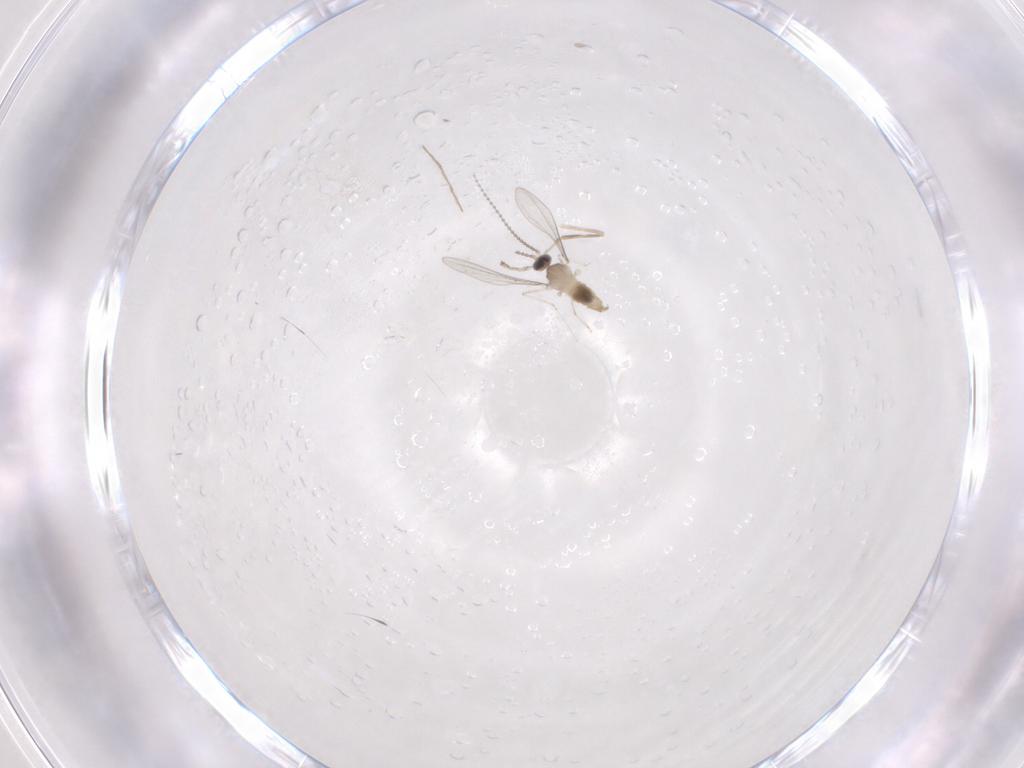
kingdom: Animalia
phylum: Arthropoda
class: Insecta
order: Diptera
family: Cecidomyiidae
